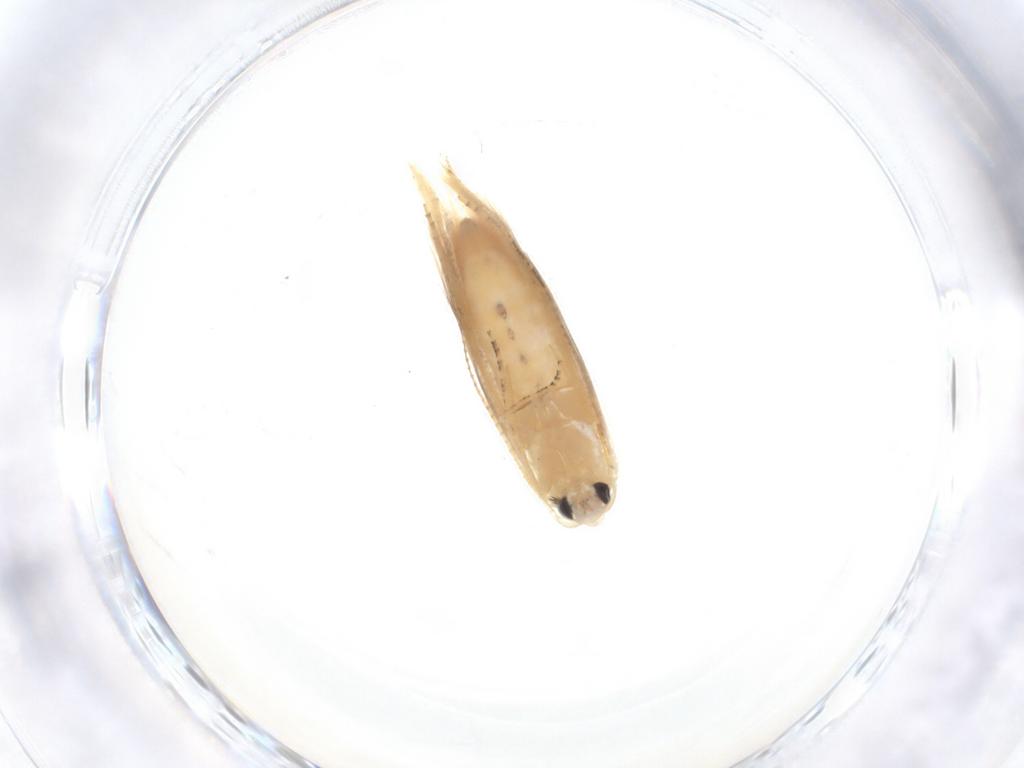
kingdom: Animalia
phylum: Arthropoda
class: Insecta
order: Lepidoptera
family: Bucculatricidae
